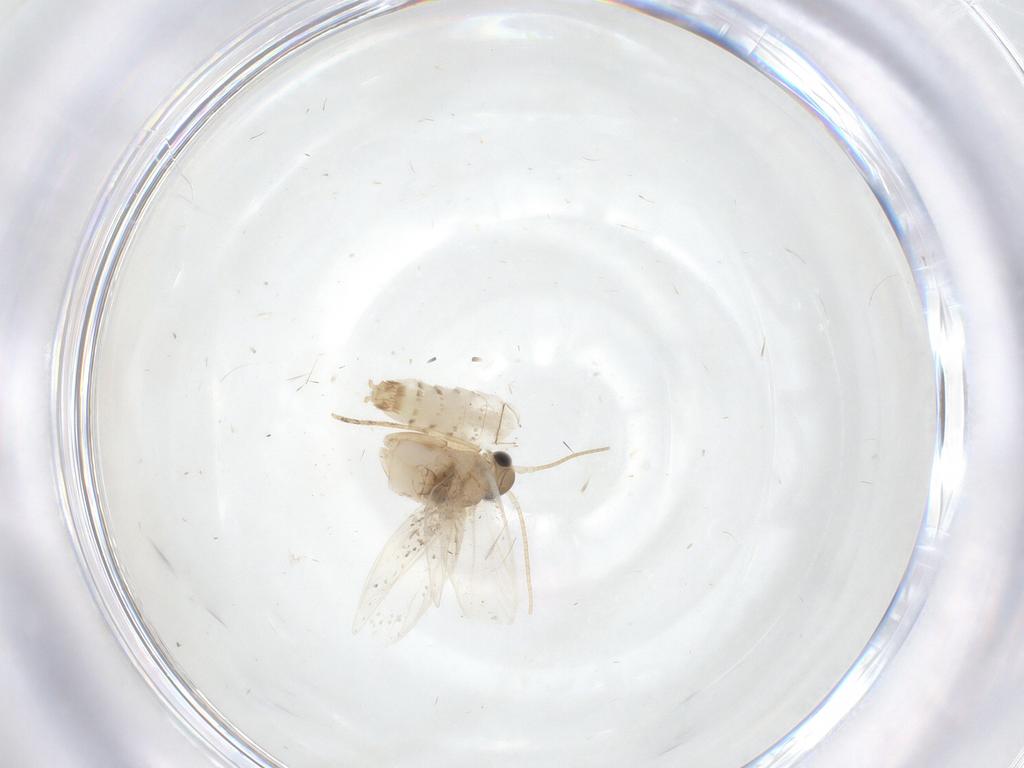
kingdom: Animalia
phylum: Arthropoda
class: Insecta
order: Lepidoptera
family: Dryadaulidae
